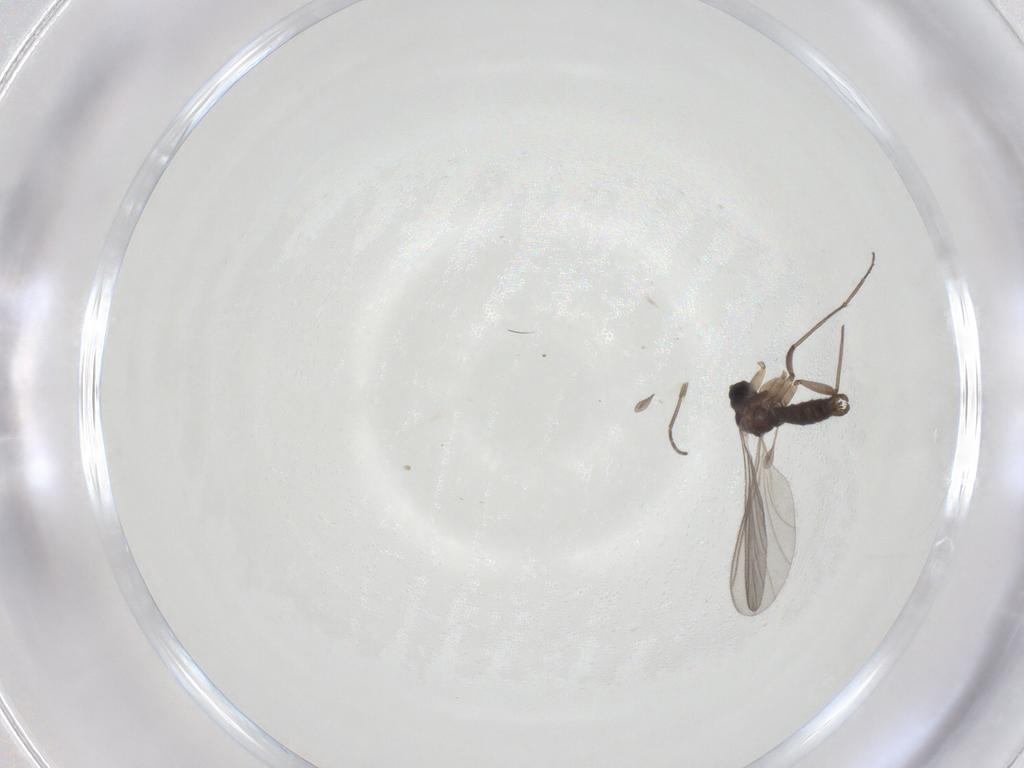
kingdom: Animalia
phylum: Arthropoda
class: Insecta
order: Diptera
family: Sciaridae
